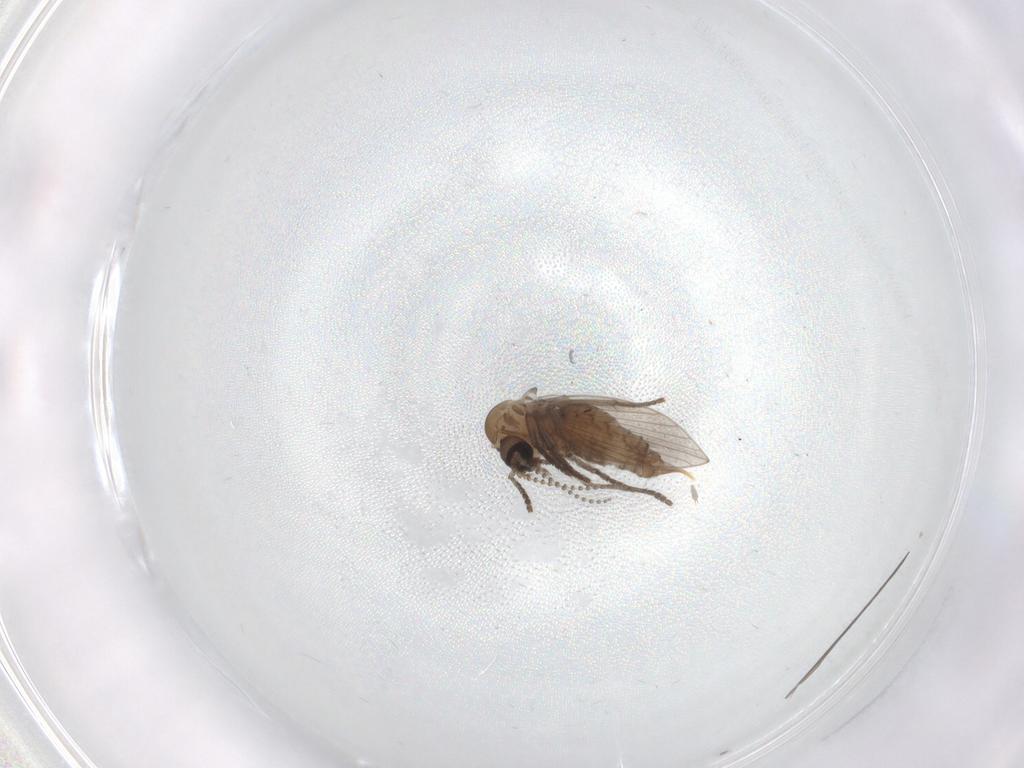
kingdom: Animalia
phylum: Arthropoda
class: Insecta
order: Diptera
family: Psychodidae
